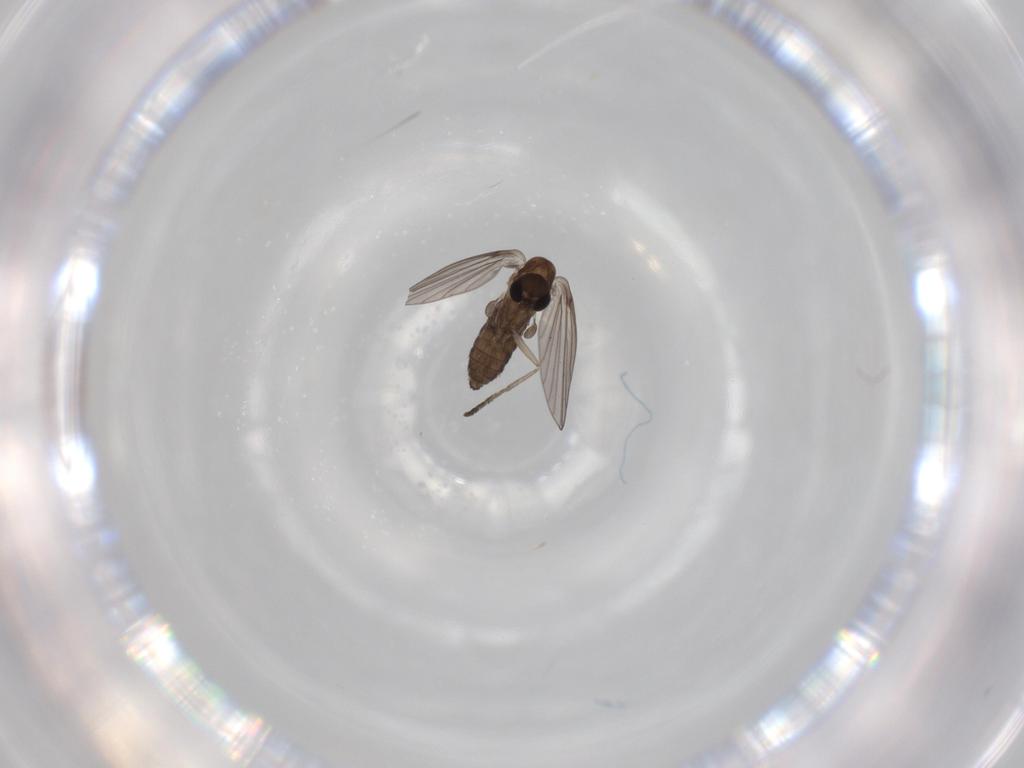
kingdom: Animalia
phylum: Arthropoda
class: Insecta
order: Diptera
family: Psychodidae
